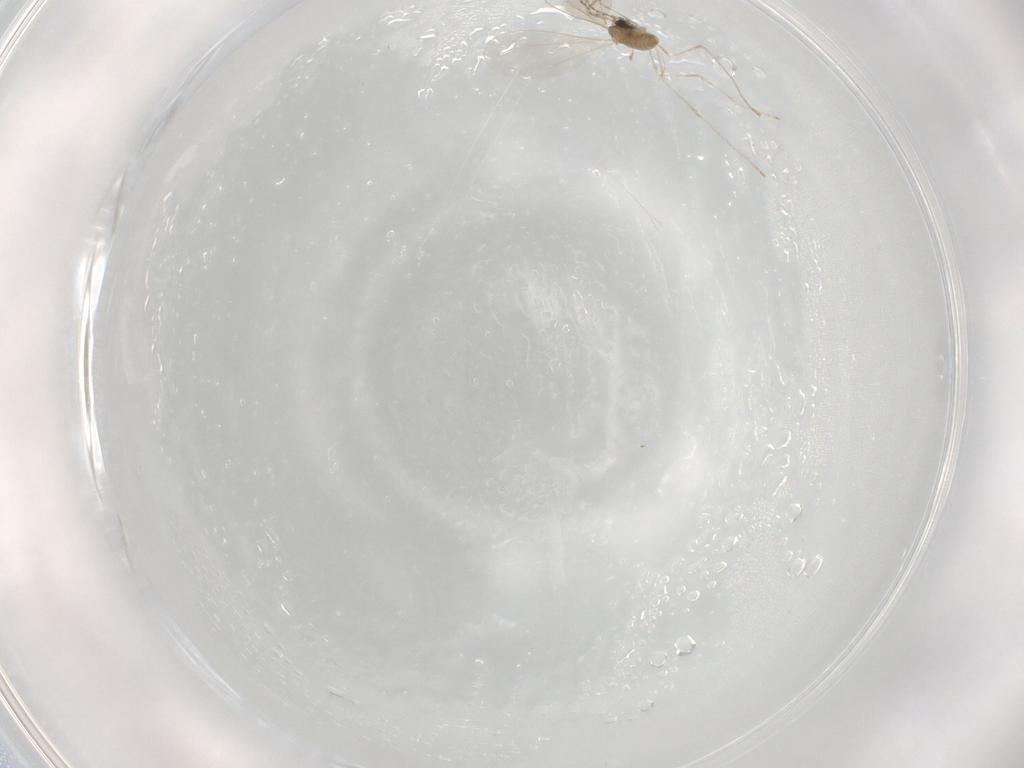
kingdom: Animalia
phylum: Arthropoda
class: Insecta
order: Diptera
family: Cecidomyiidae
